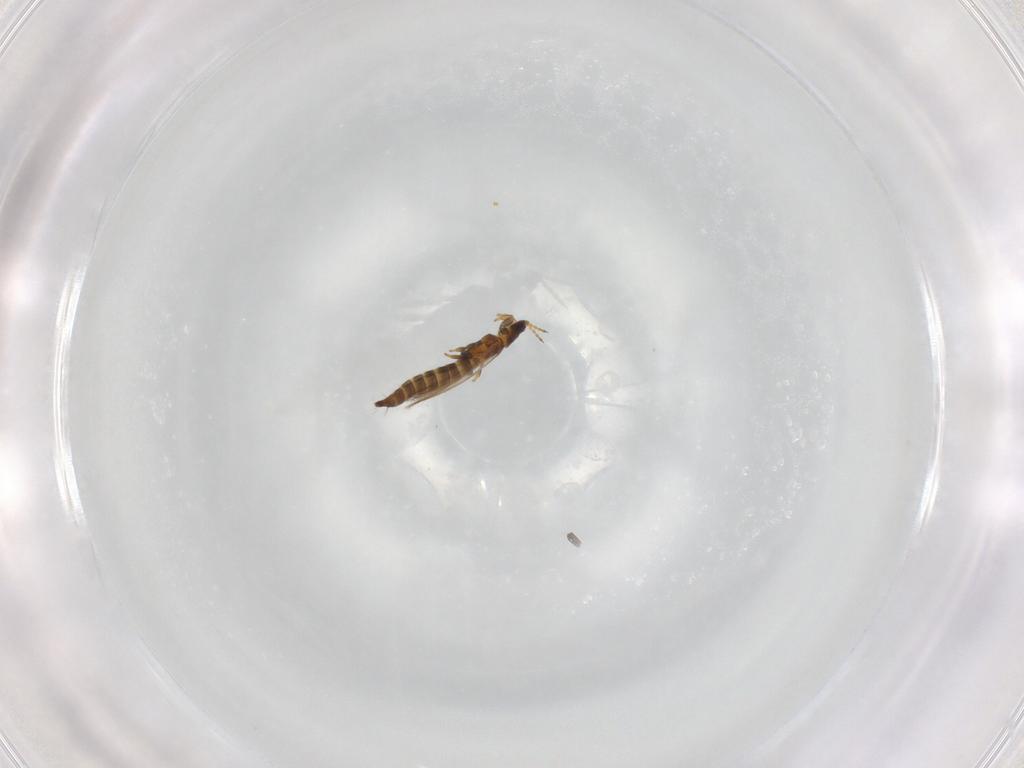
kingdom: Animalia
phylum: Arthropoda
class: Insecta
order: Thysanoptera
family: Thripidae
